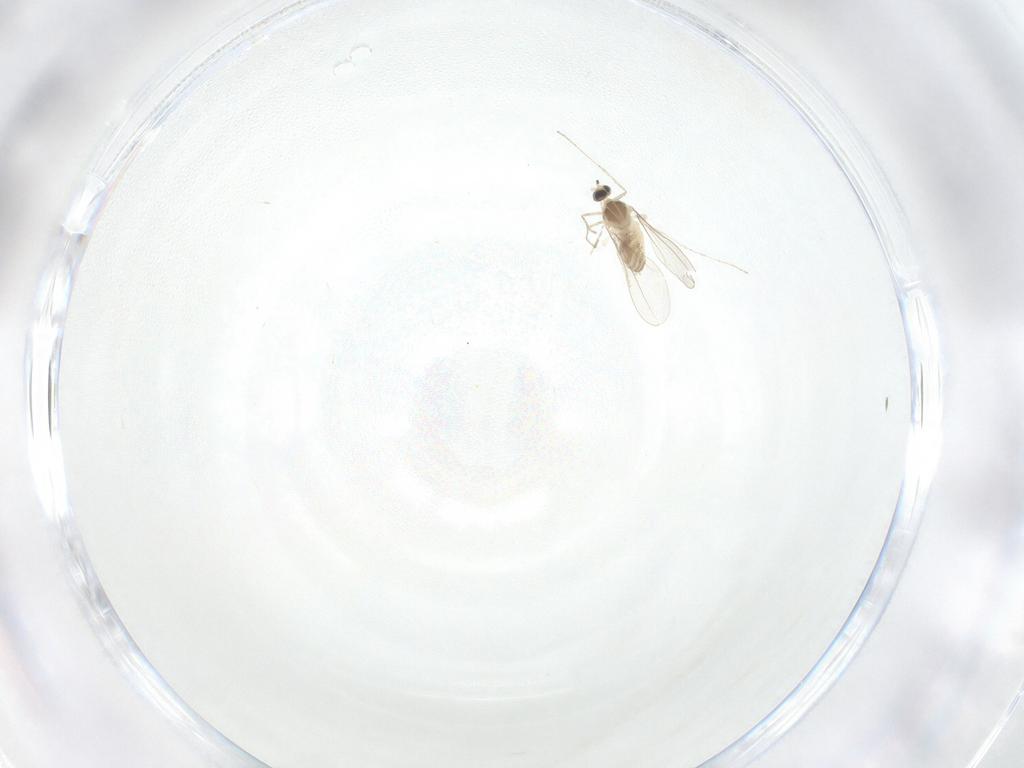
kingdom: Animalia
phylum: Arthropoda
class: Insecta
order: Diptera
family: Cecidomyiidae
